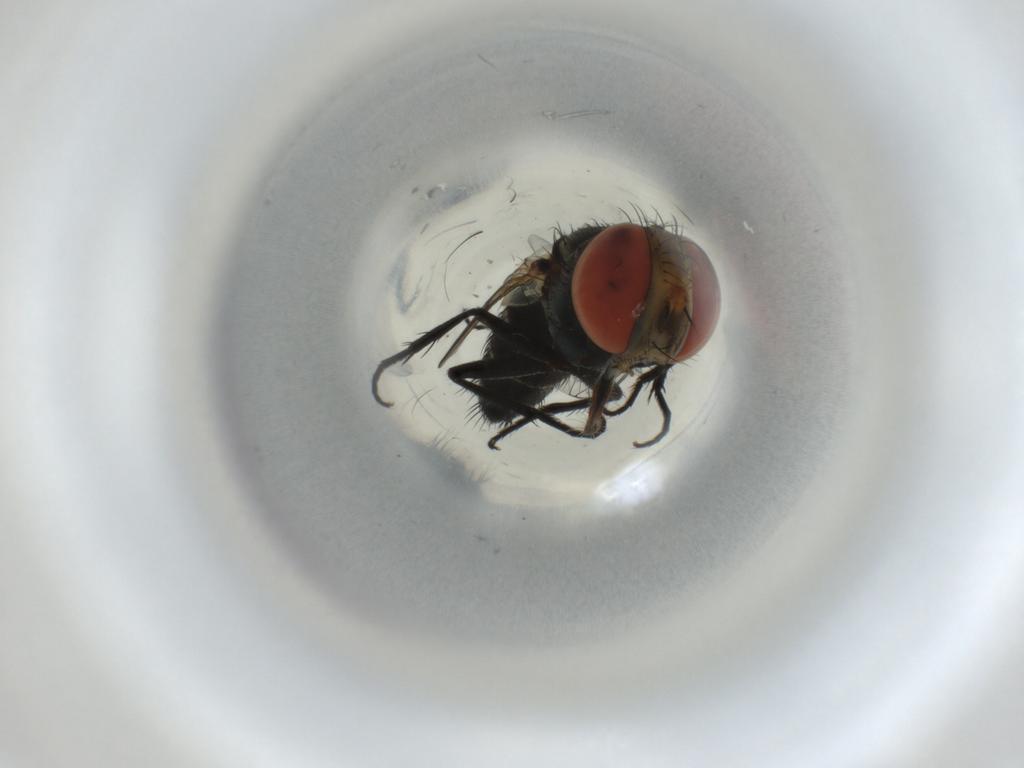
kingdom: Animalia
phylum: Arthropoda
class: Insecta
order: Diptera
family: Sarcophagidae
